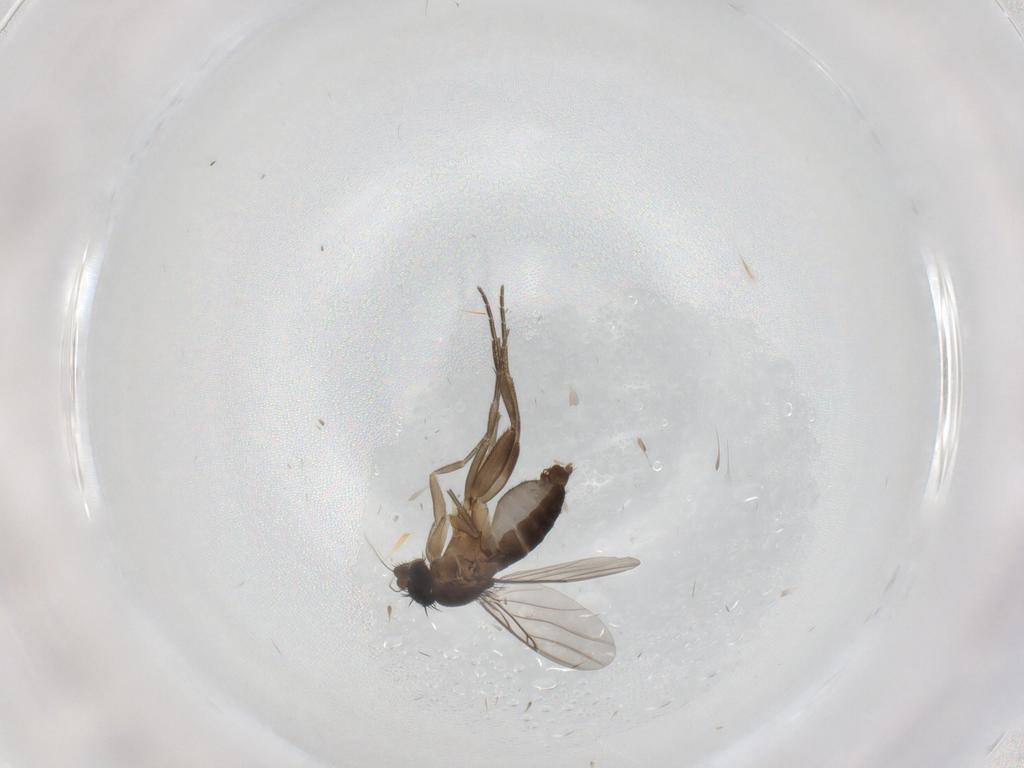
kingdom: Animalia
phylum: Arthropoda
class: Insecta
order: Diptera
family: Phoridae
